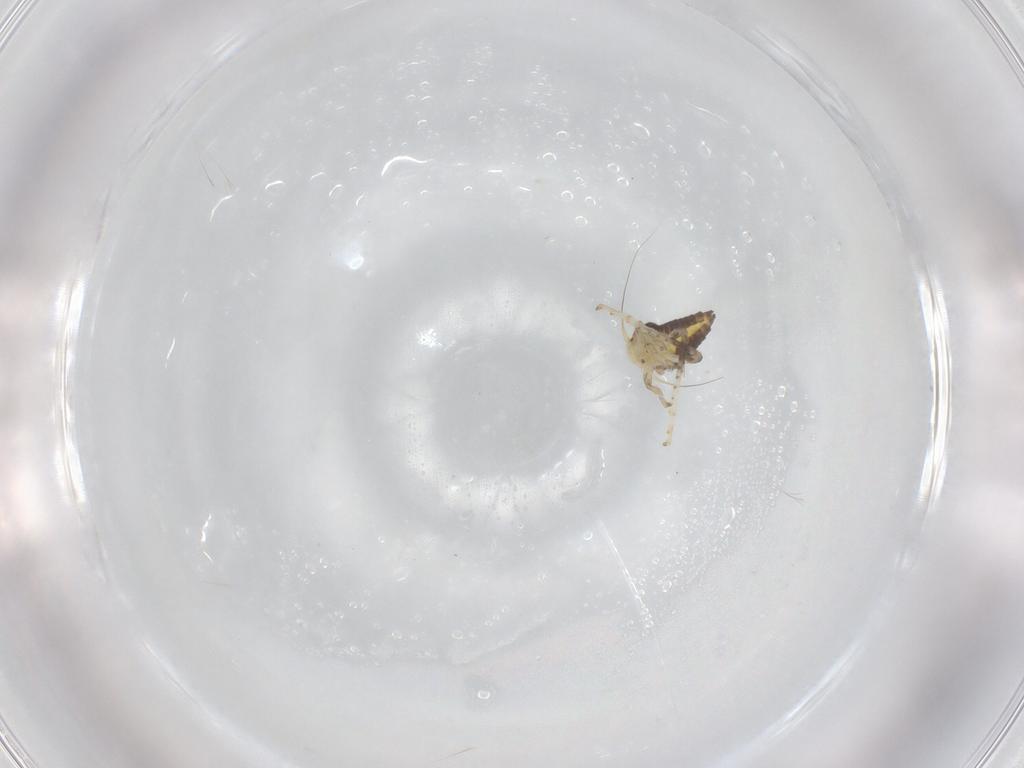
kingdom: Animalia
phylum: Arthropoda
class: Insecta
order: Hemiptera
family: Cicadellidae
